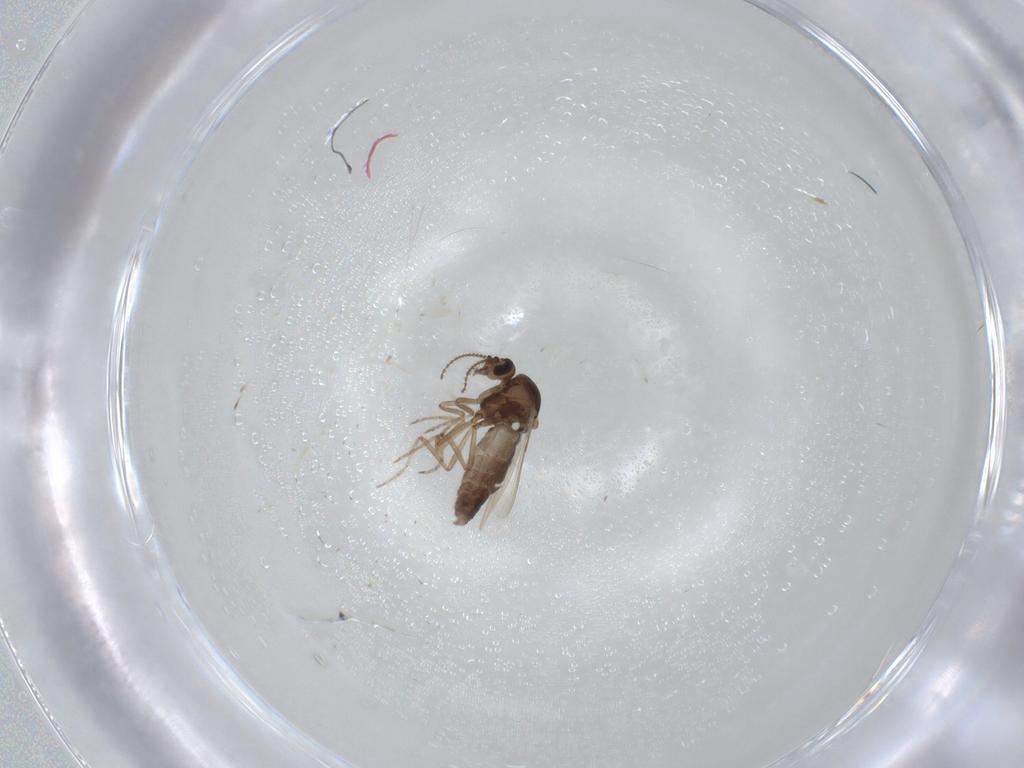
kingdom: Animalia
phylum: Arthropoda
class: Insecta
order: Diptera
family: Ceratopogonidae
